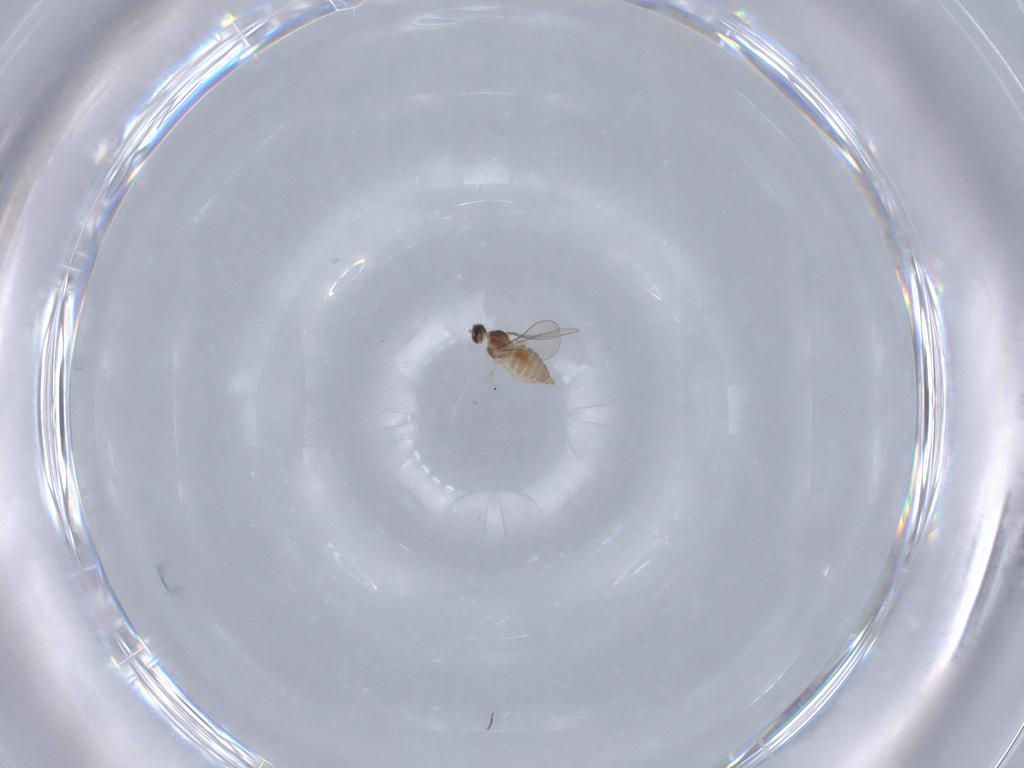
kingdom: Animalia
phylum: Arthropoda
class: Insecta
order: Diptera
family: Cecidomyiidae
